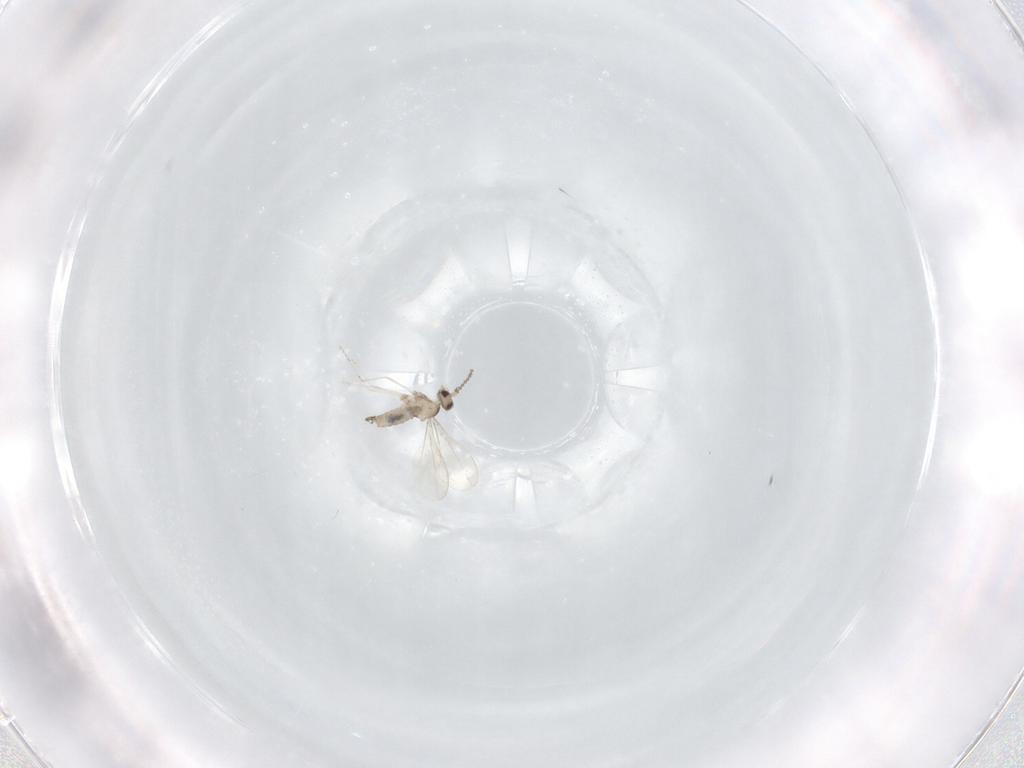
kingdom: Animalia
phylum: Arthropoda
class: Insecta
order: Diptera
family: Cecidomyiidae
